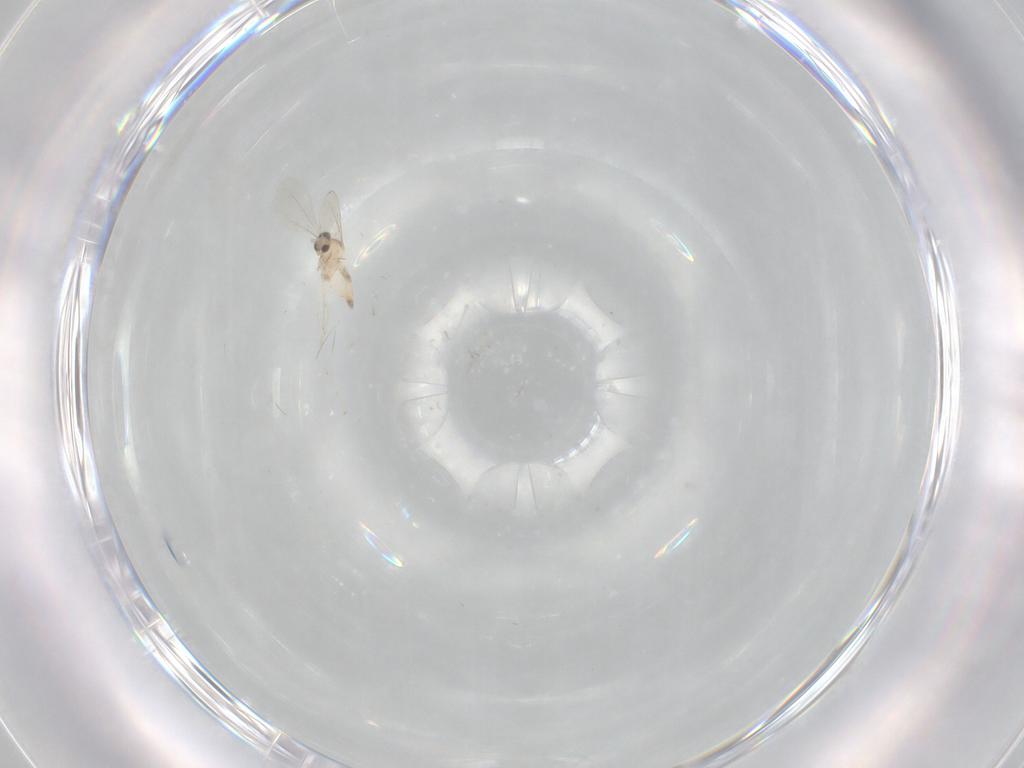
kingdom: Animalia
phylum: Arthropoda
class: Insecta
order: Diptera
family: Cecidomyiidae
